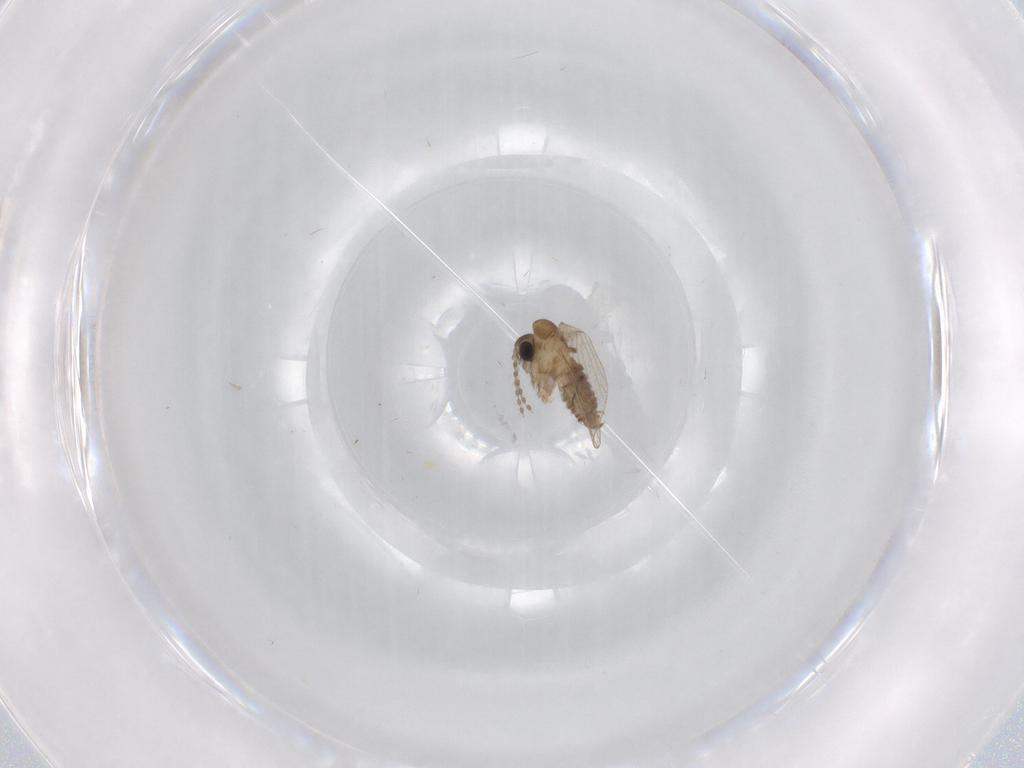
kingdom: Animalia
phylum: Arthropoda
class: Insecta
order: Diptera
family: Psychodidae
